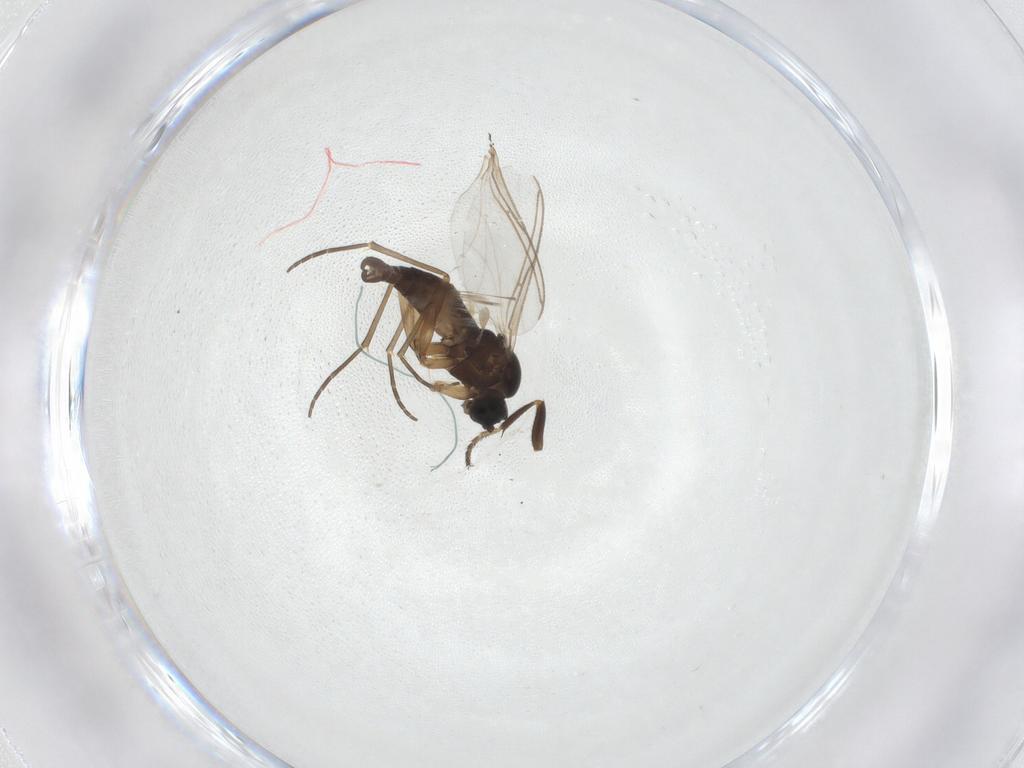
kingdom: Animalia
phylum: Arthropoda
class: Insecta
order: Diptera
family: Sciaridae
